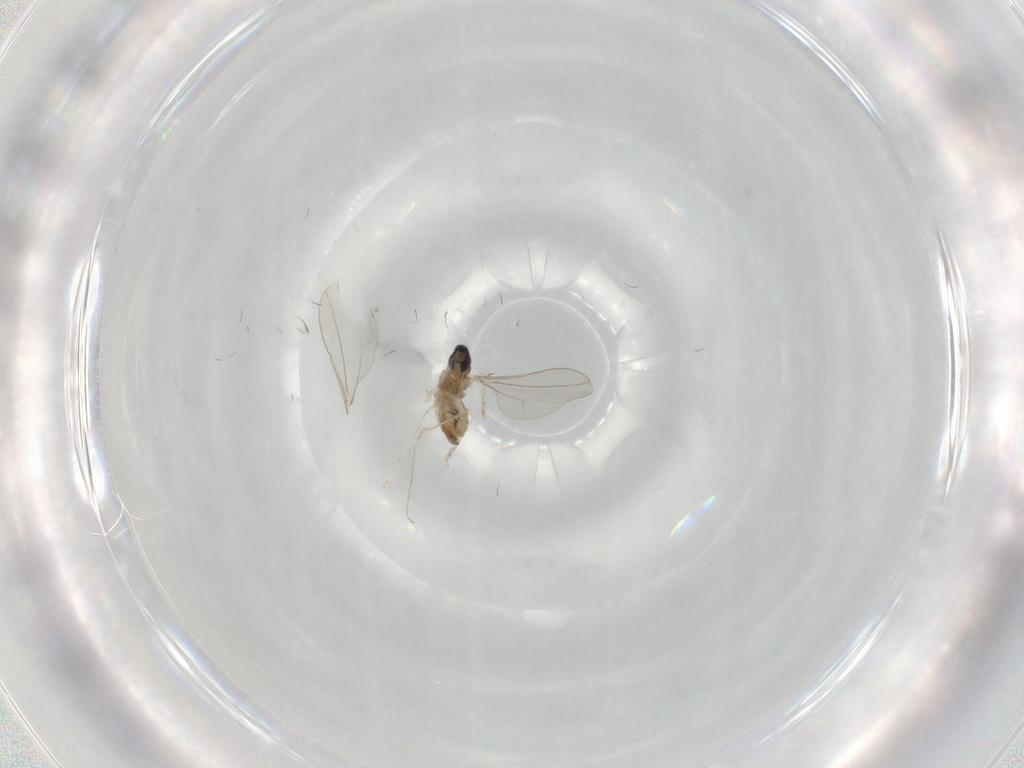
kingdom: Animalia
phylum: Arthropoda
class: Insecta
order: Diptera
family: Cecidomyiidae
